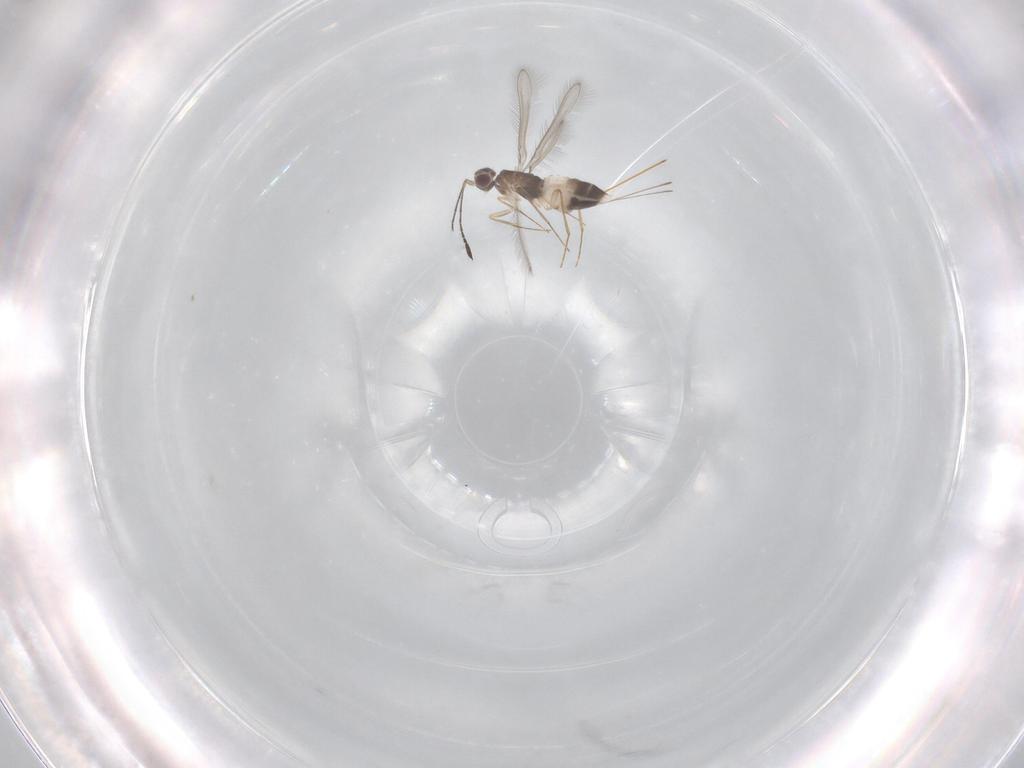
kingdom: Animalia
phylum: Arthropoda
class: Insecta
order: Hymenoptera
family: Mymaridae
